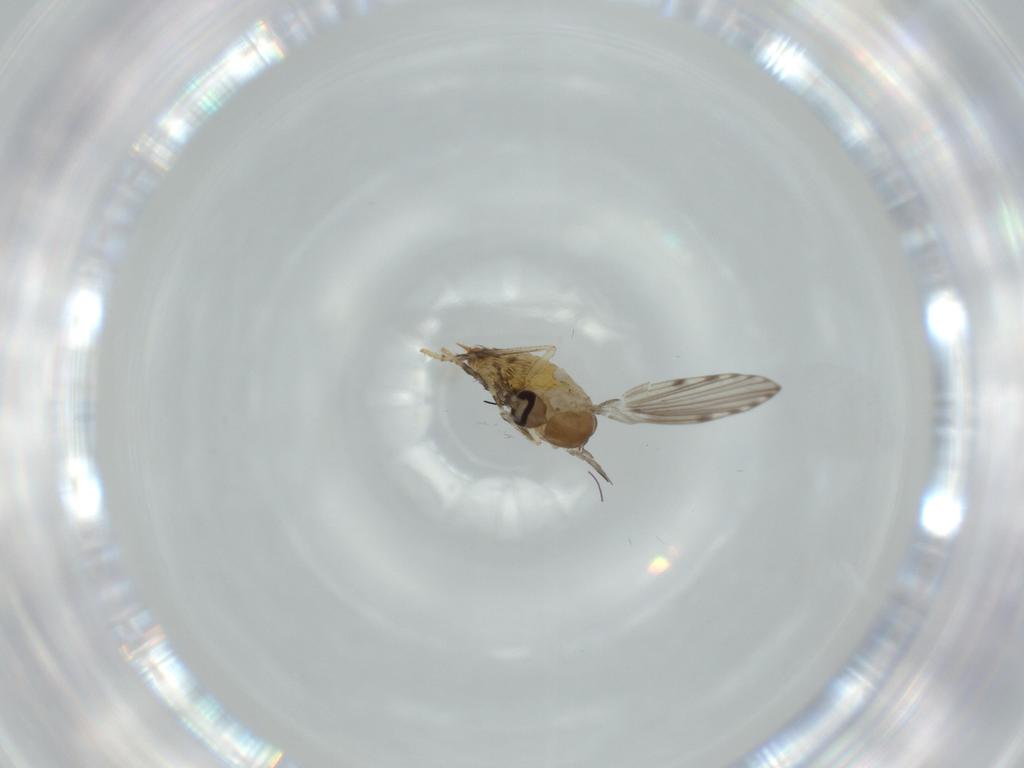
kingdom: Animalia
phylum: Arthropoda
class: Insecta
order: Diptera
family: Psychodidae
